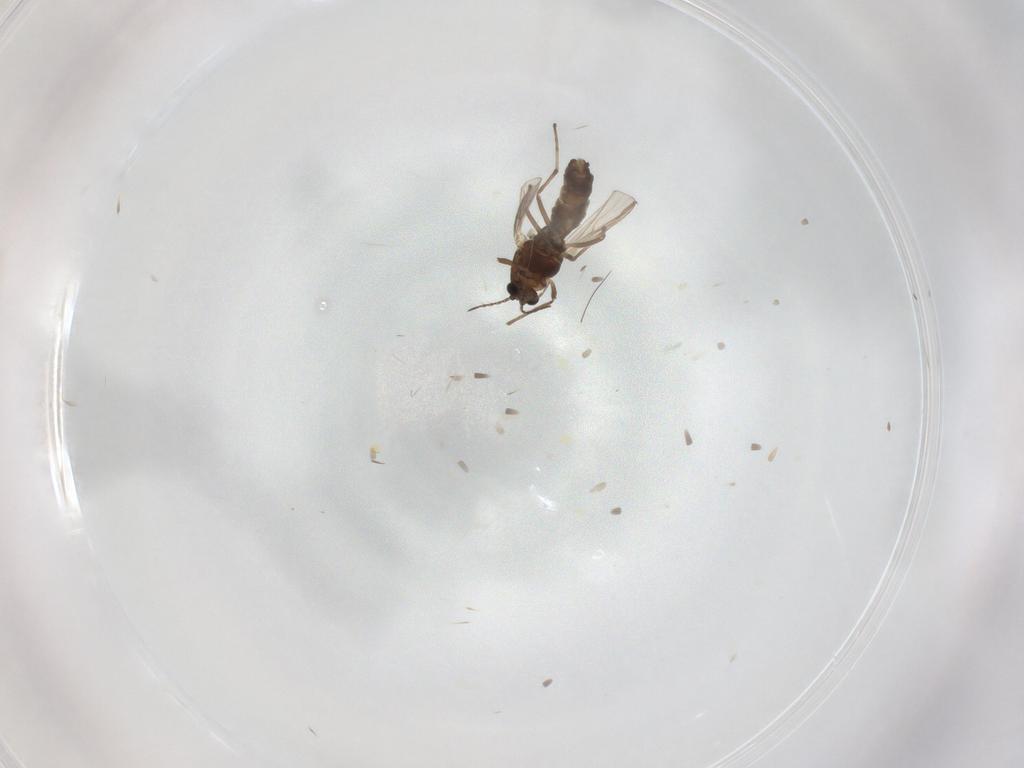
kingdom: Animalia
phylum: Arthropoda
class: Insecta
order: Diptera
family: Chironomidae
